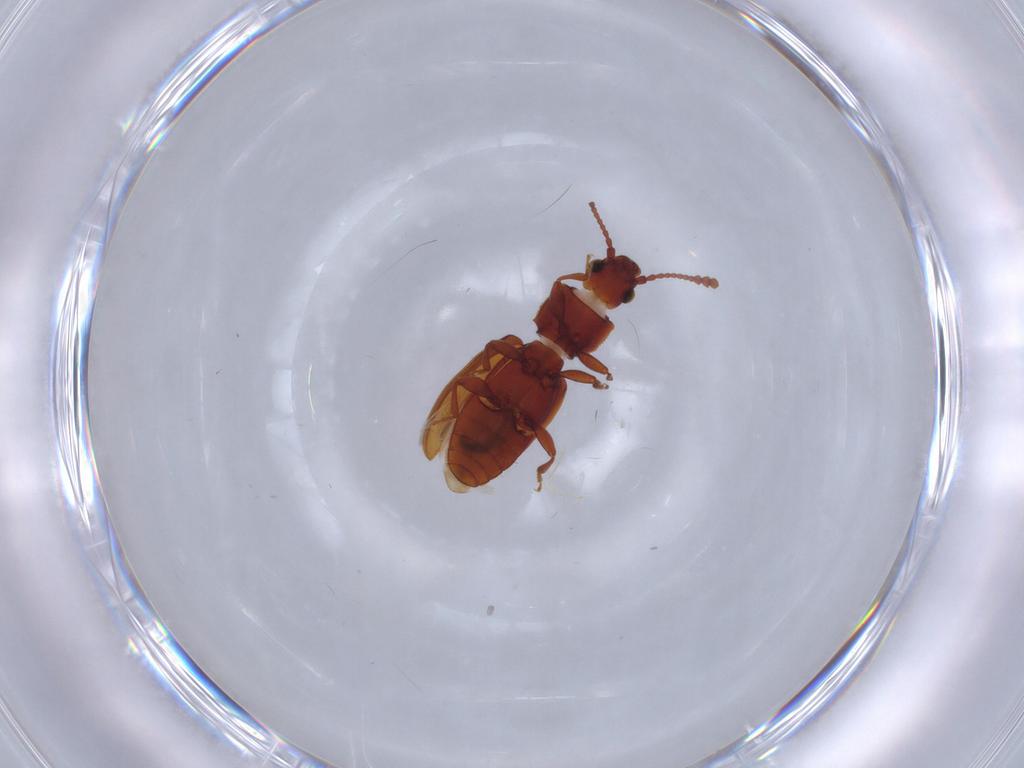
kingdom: Animalia
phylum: Arthropoda
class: Insecta
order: Coleoptera
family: Silvanidae
